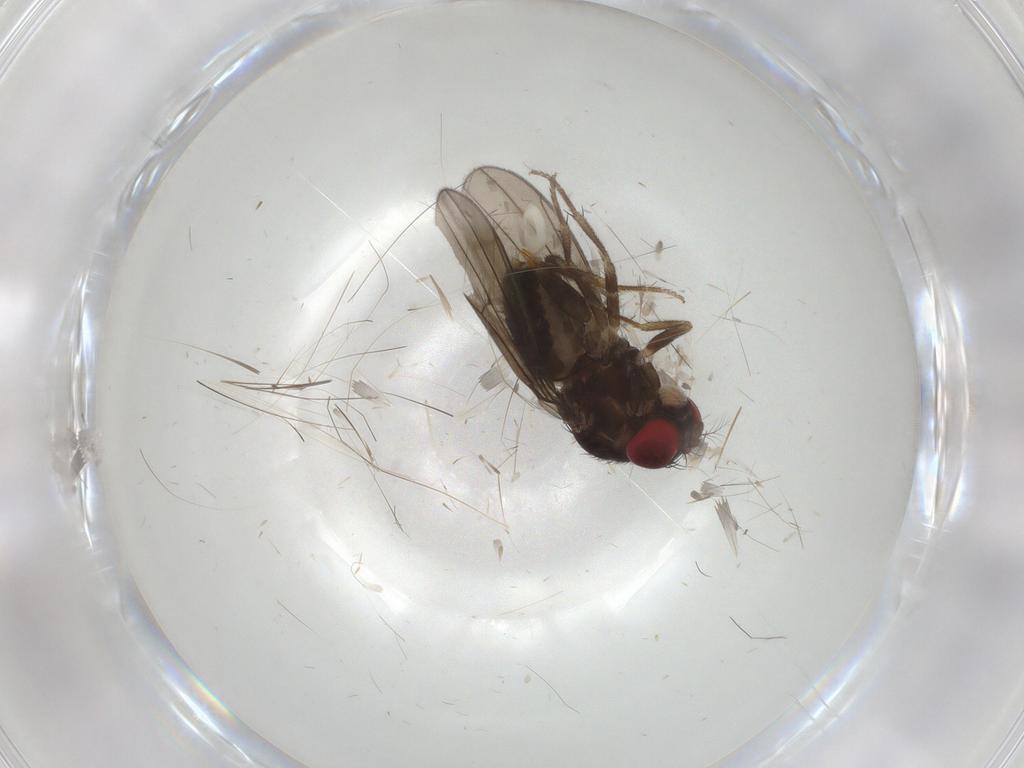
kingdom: Animalia
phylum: Arthropoda
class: Insecta
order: Diptera
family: Drosophilidae
